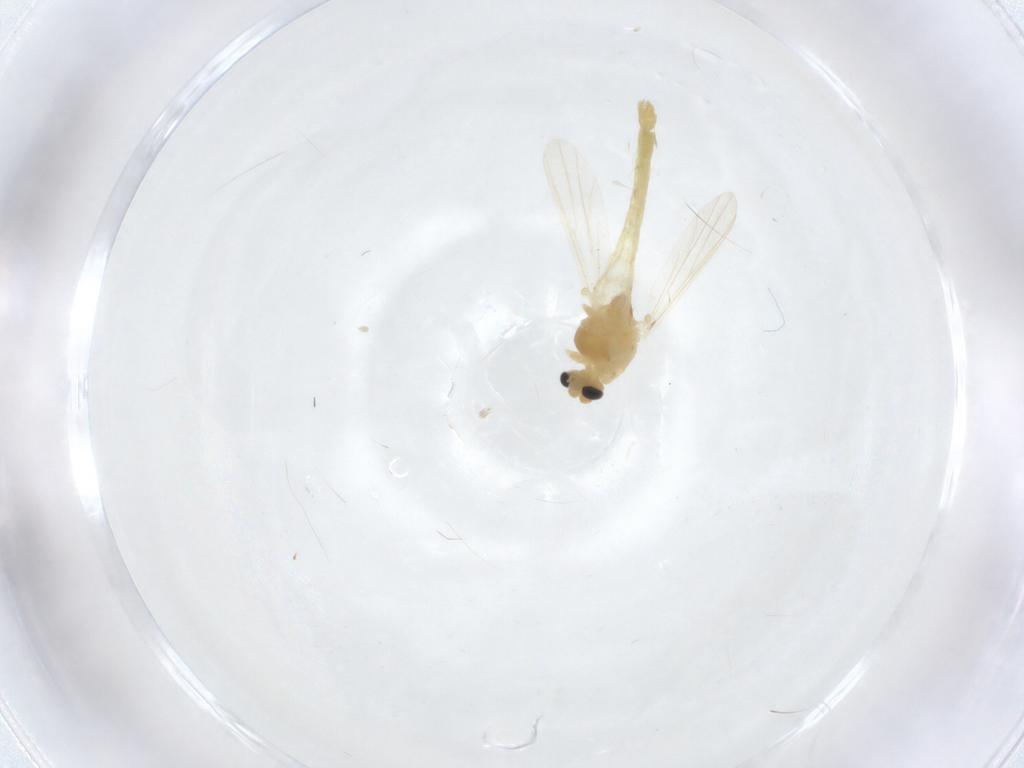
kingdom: Animalia
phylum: Arthropoda
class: Insecta
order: Diptera
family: Chironomidae
